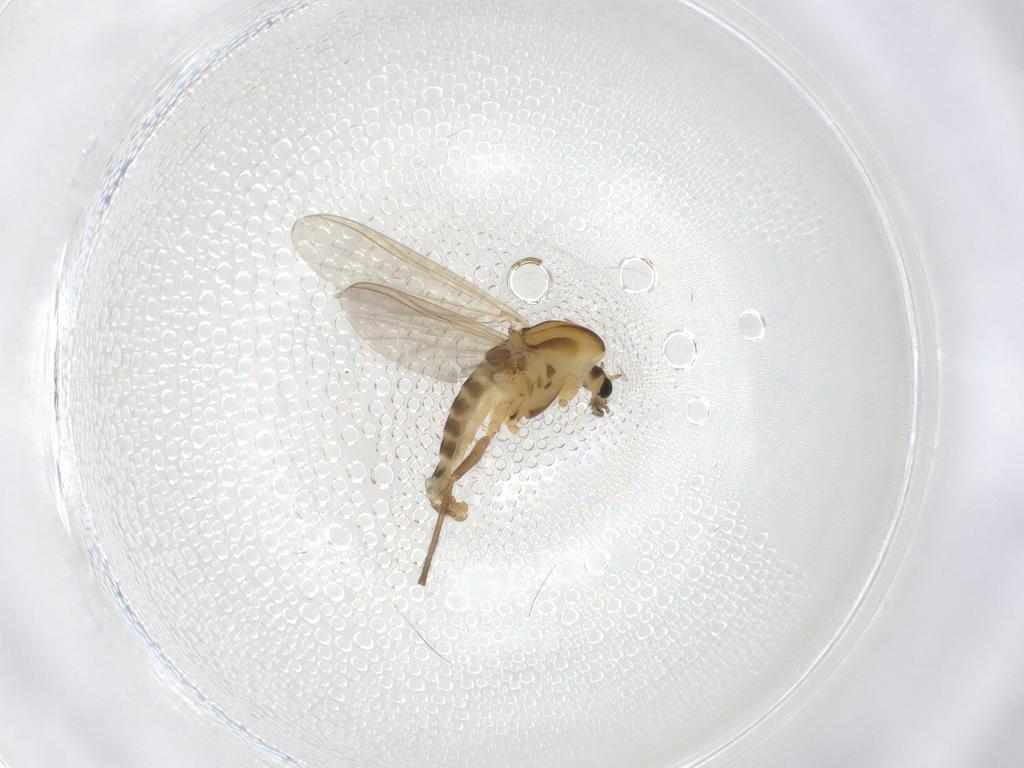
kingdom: Animalia
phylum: Arthropoda
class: Insecta
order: Diptera
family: Chironomidae
